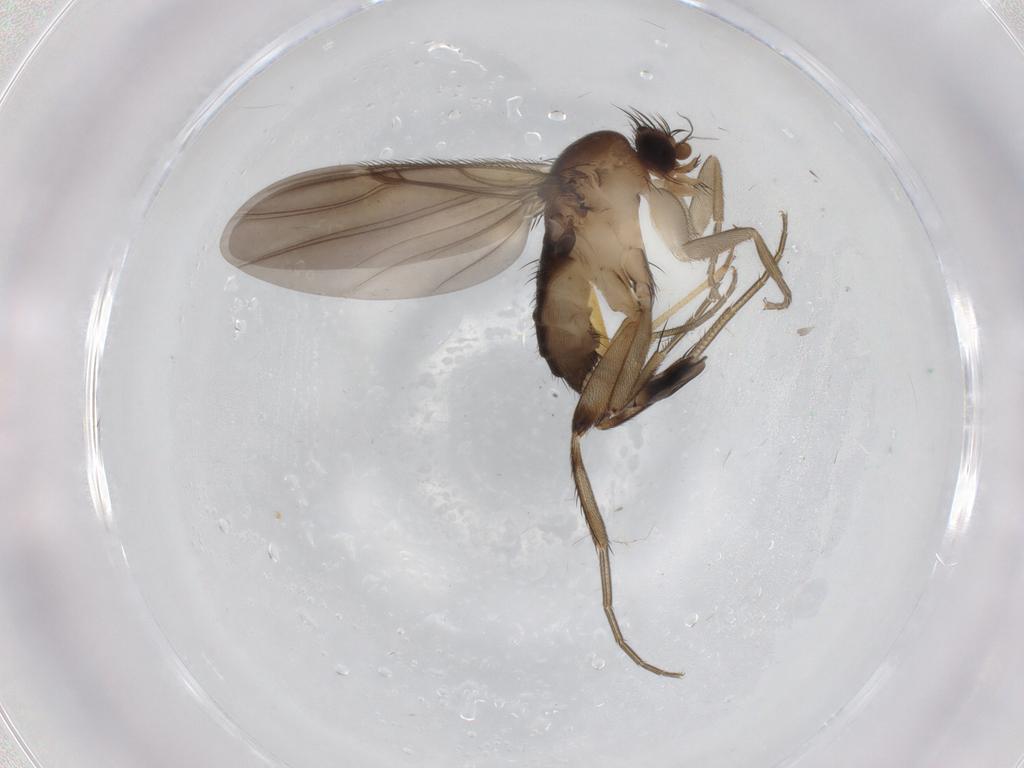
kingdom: Animalia
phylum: Arthropoda
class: Insecta
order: Diptera
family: Phoridae
